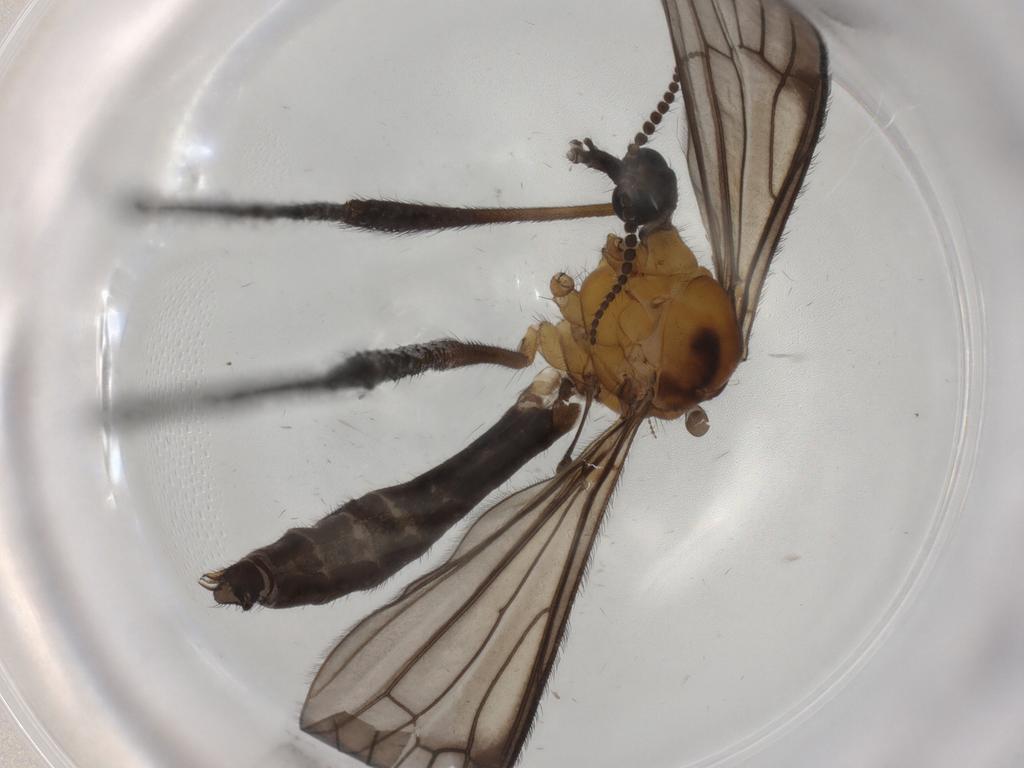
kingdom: Animalia
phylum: Arthropoda
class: Insecta
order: Diptera
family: Limoniidae
